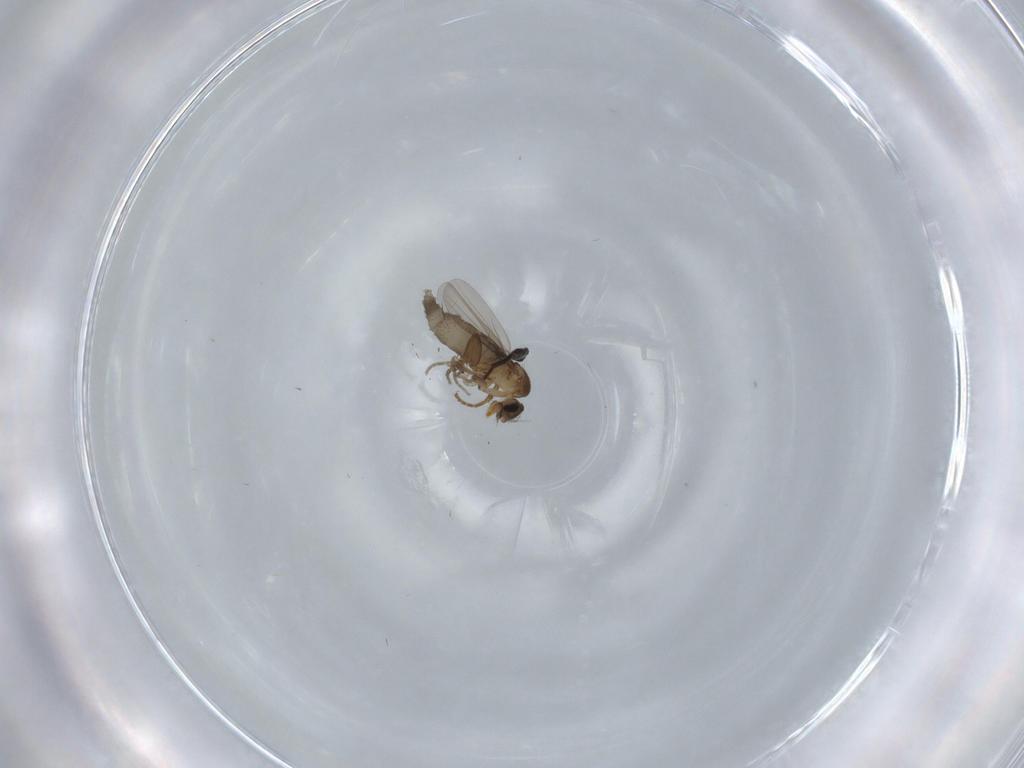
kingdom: Animalia
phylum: Arthropoda
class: Insecta
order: Diptera
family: Phoridae
